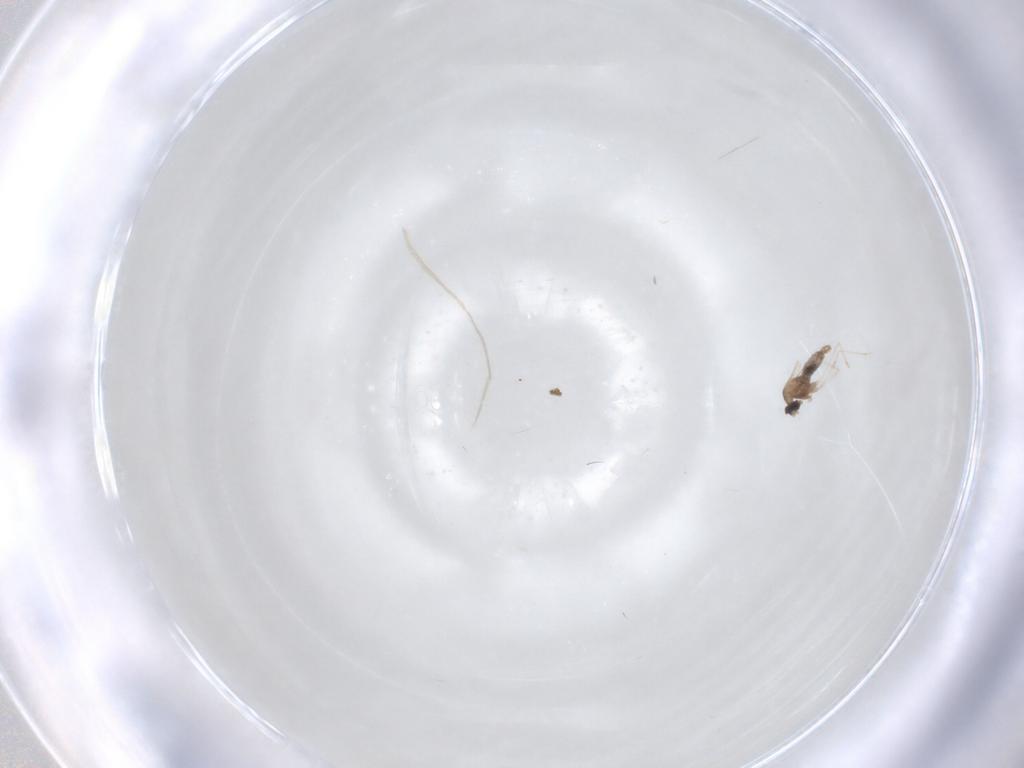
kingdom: Animalia
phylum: Arthropoda
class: Insecta
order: Diptera
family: Cecidomyiidae
